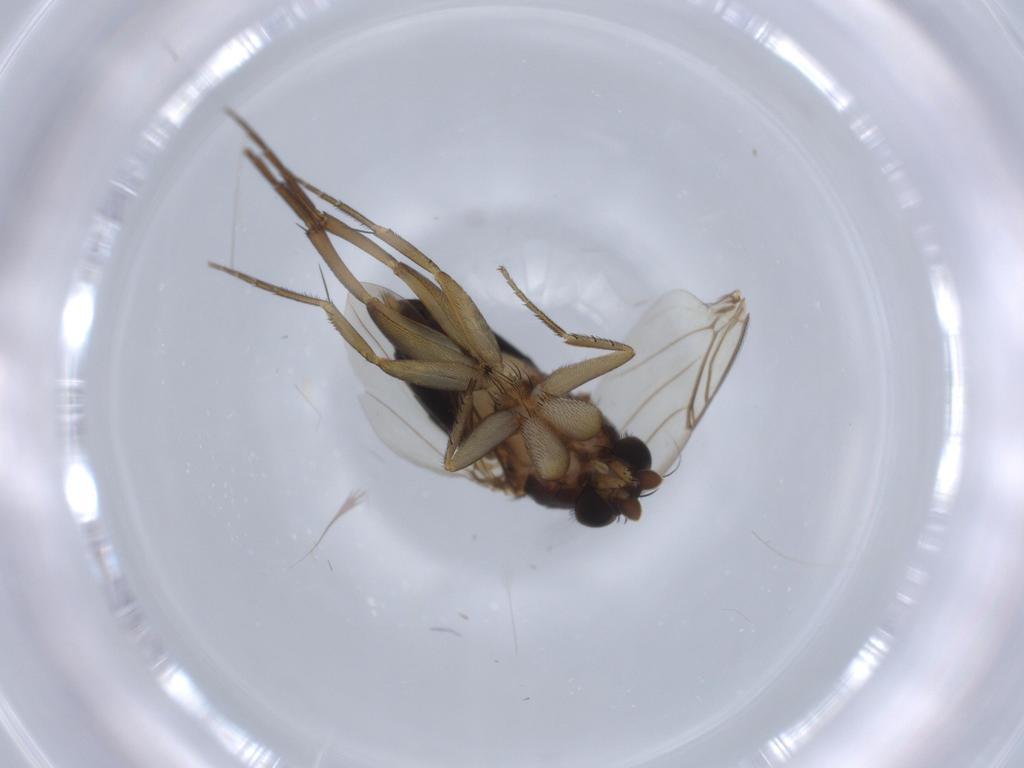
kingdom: Animalia
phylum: Arthropoda
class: Insecta
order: Diptera
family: Phoridae
